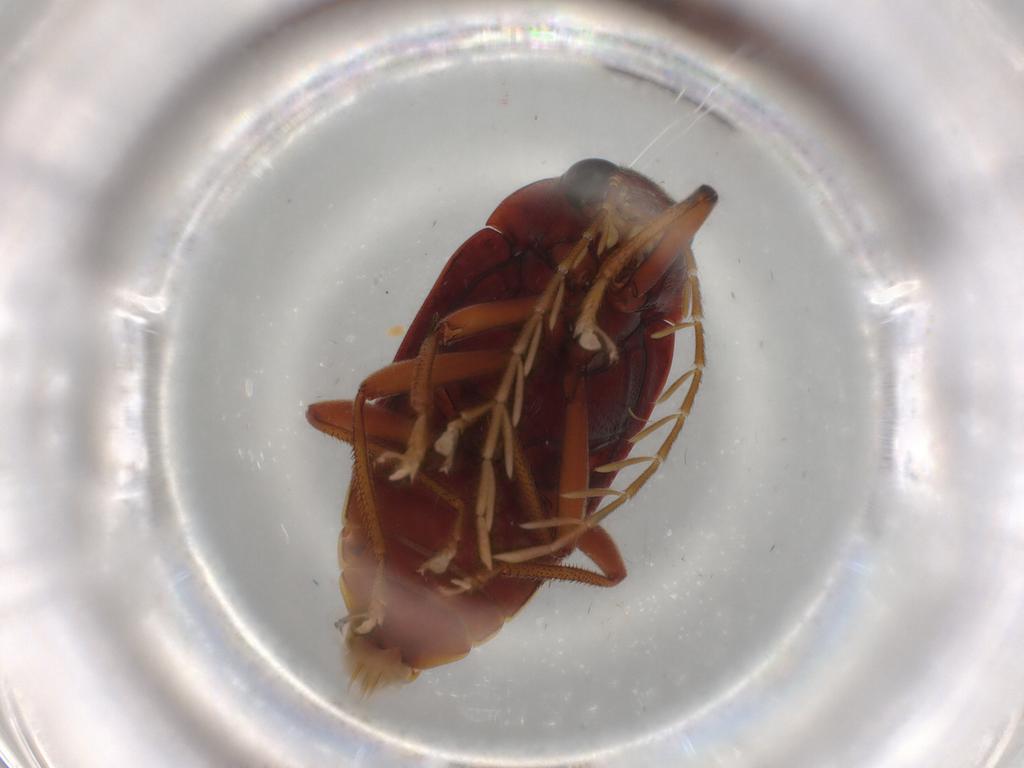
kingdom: Animalia
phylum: Arthropoda
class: Insecta
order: Coleoptera
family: Ptilodactylidae
